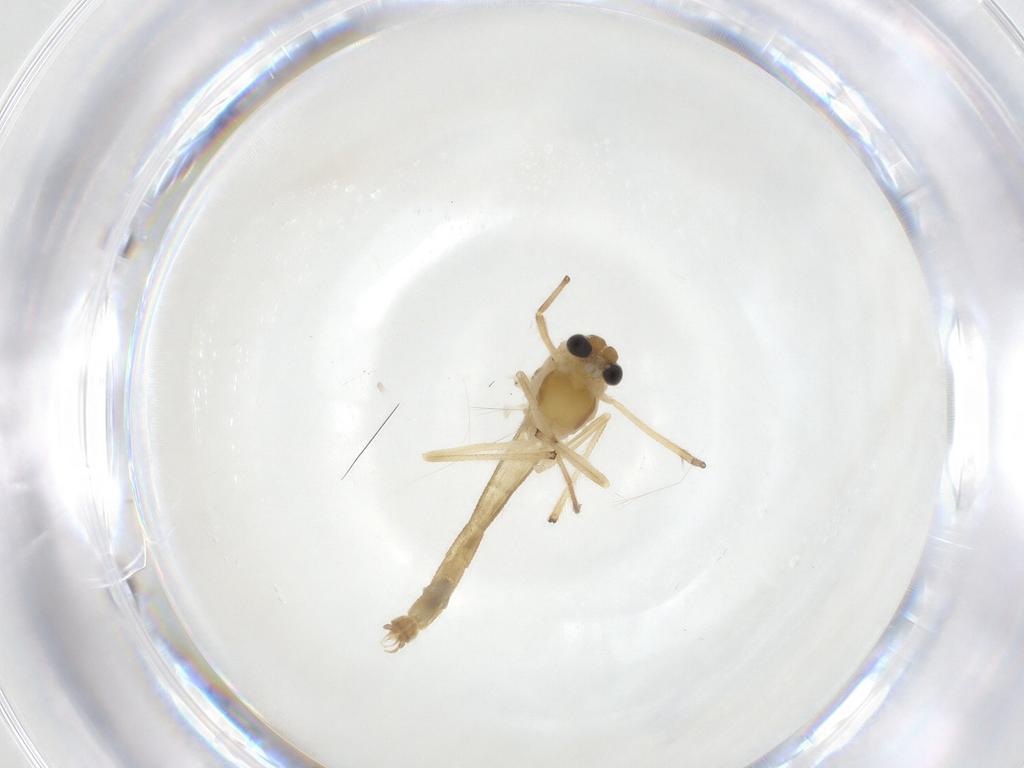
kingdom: Animalia
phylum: Arthropoda
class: Insecta
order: Diptera
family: Chironomidae
